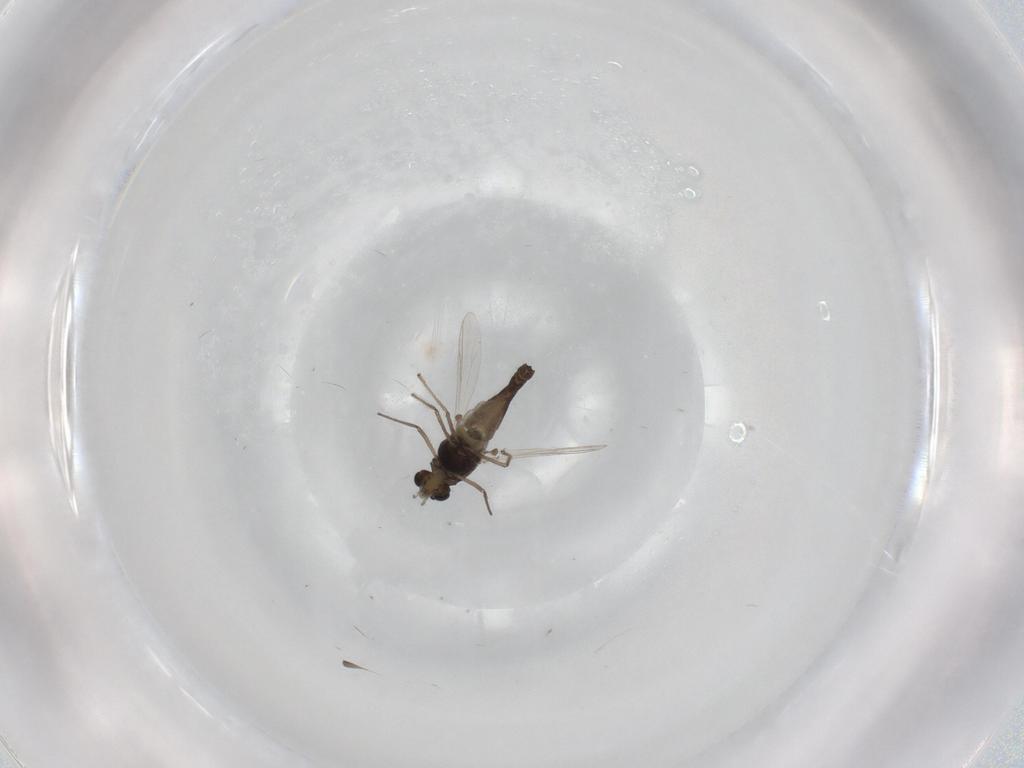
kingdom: Animalia
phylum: Arthropoda
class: Insecta
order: Diptera
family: Chironomidae
